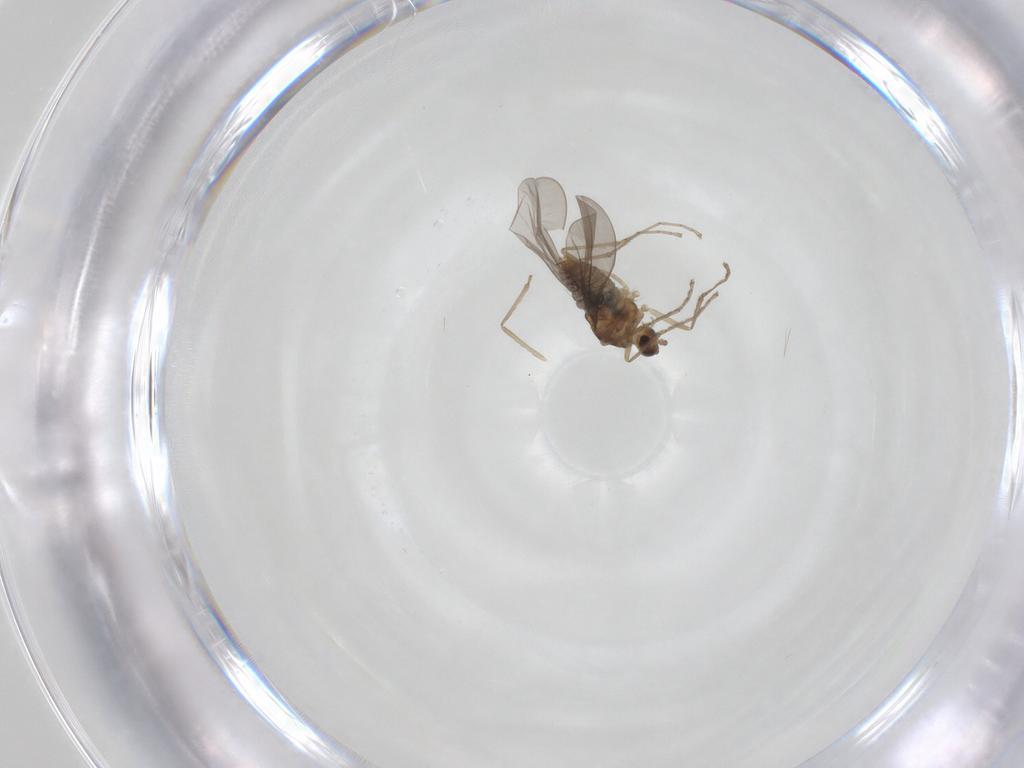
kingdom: Animalia
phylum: Arthropoda
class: Insecta
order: Diptera
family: Cecidomyiidae
